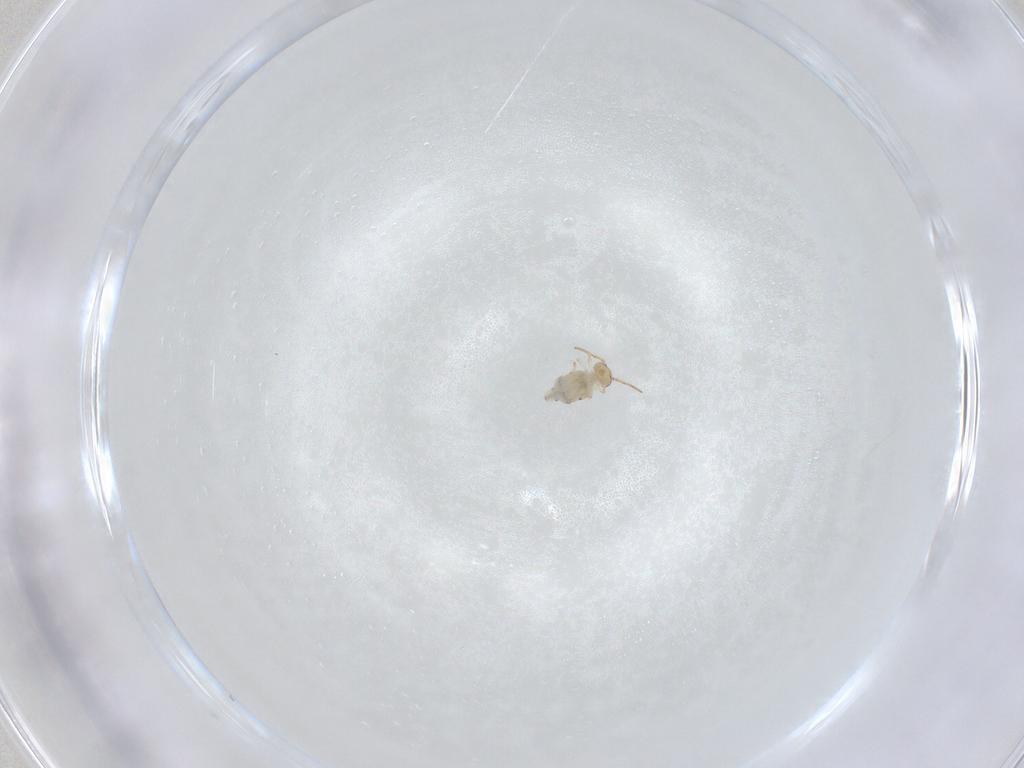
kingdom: Animalia
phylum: Arthropoda
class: Collembola
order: Symphypleona
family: Bourletiellidae
